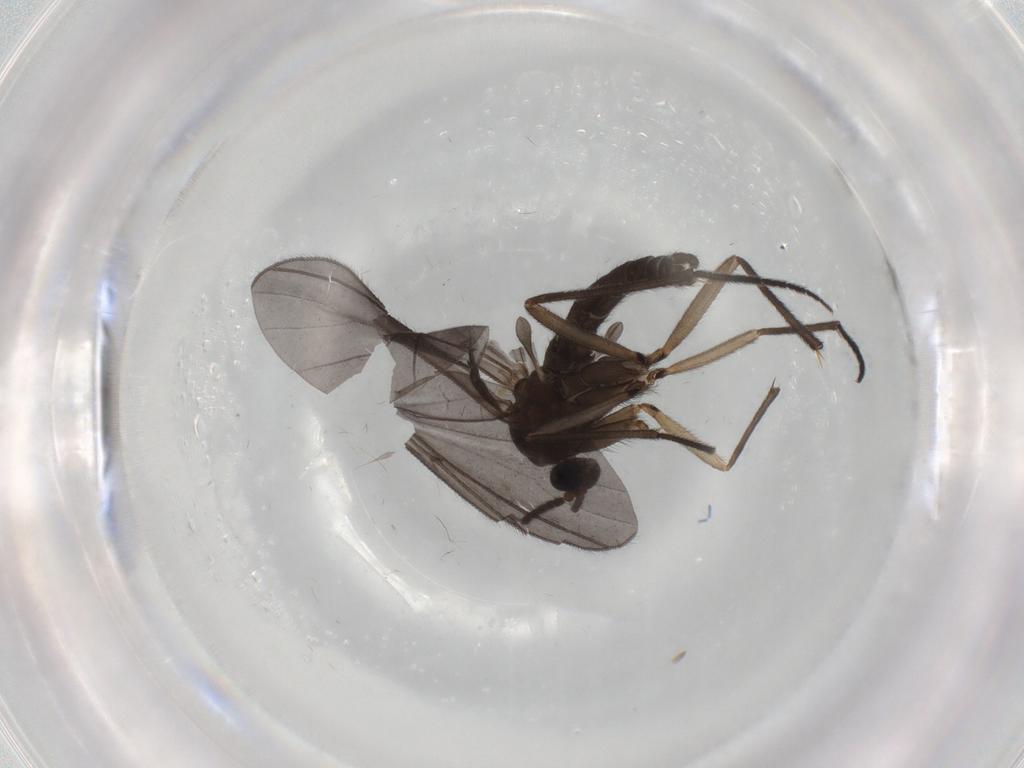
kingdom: Animalia
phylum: Arthropoda
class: Insecta
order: Diptera
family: Sciaridae
